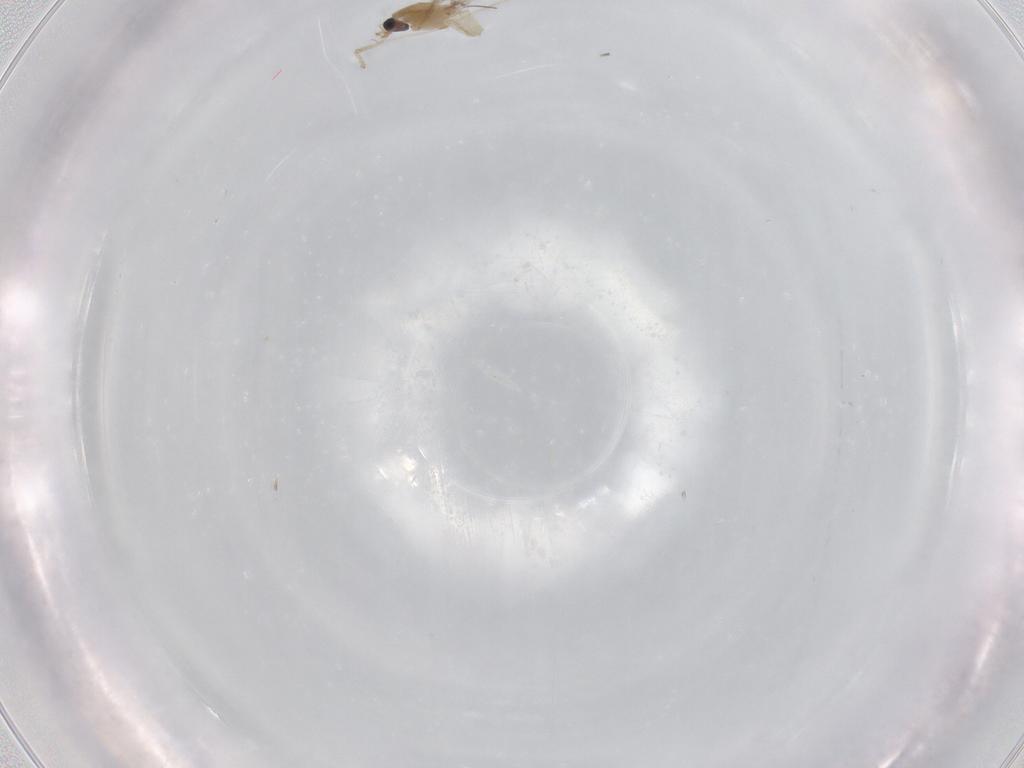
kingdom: Animalia
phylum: Arthropoda
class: Insecta
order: Diptera
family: Chironomidae
